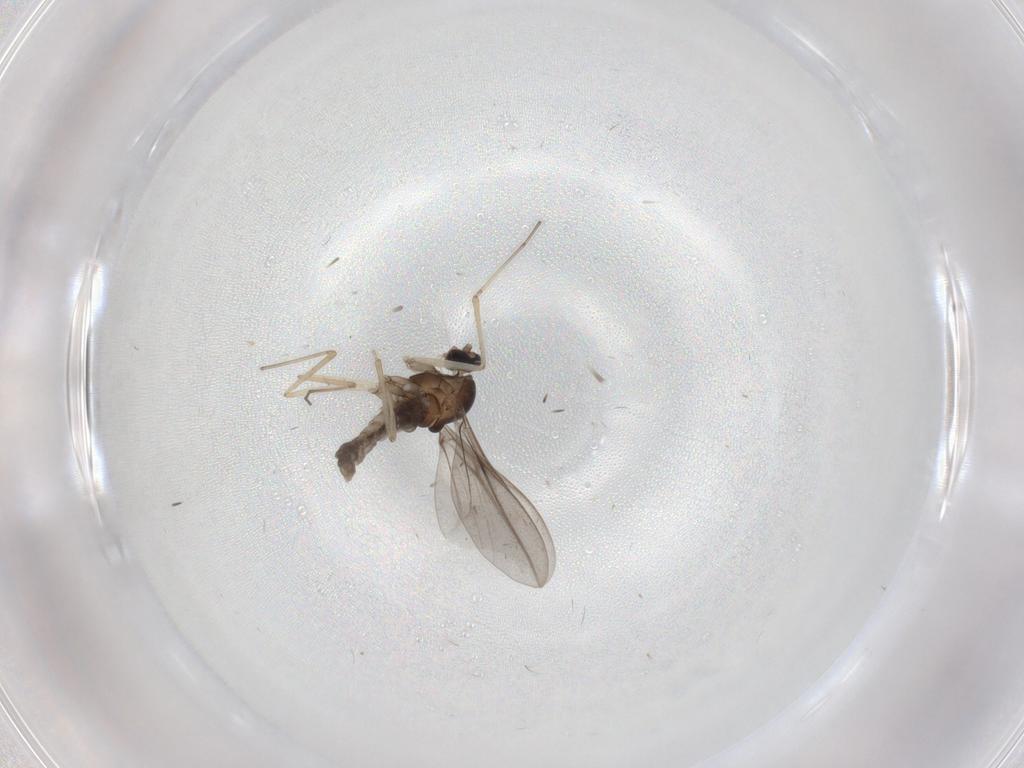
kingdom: Animalia
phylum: Arthropoda
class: Insecta
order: Diptera
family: Cecidomyiidae
